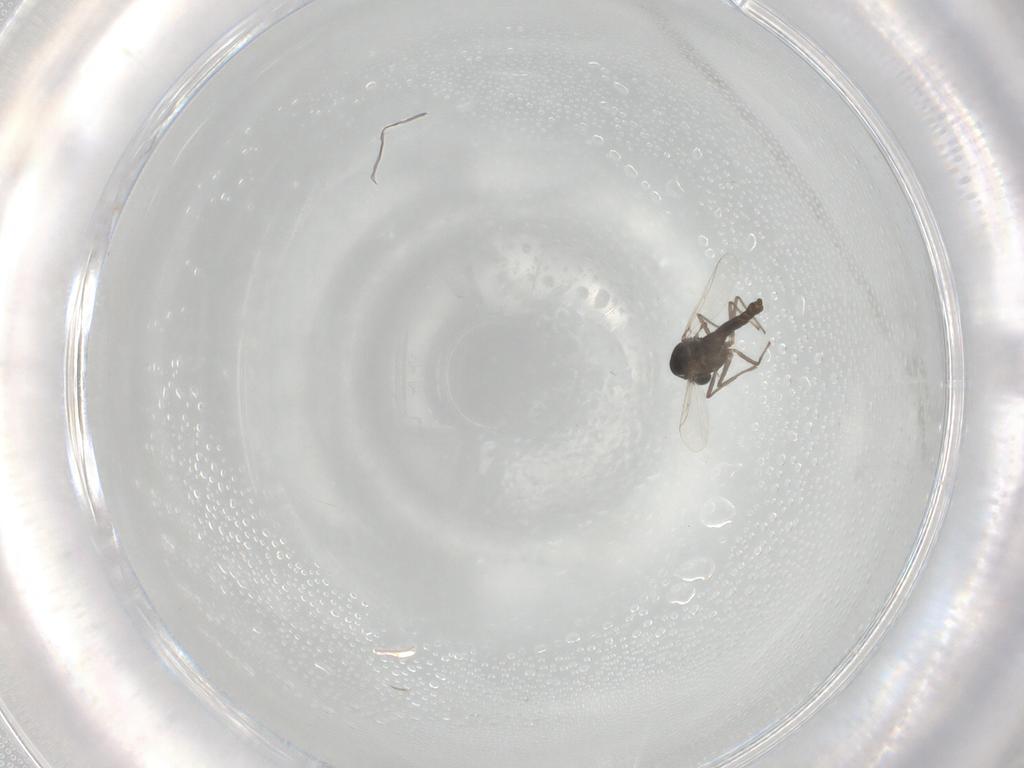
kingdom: Animalia
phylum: Arthropoda
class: Insecta
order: Diptera
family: Chironomidae
